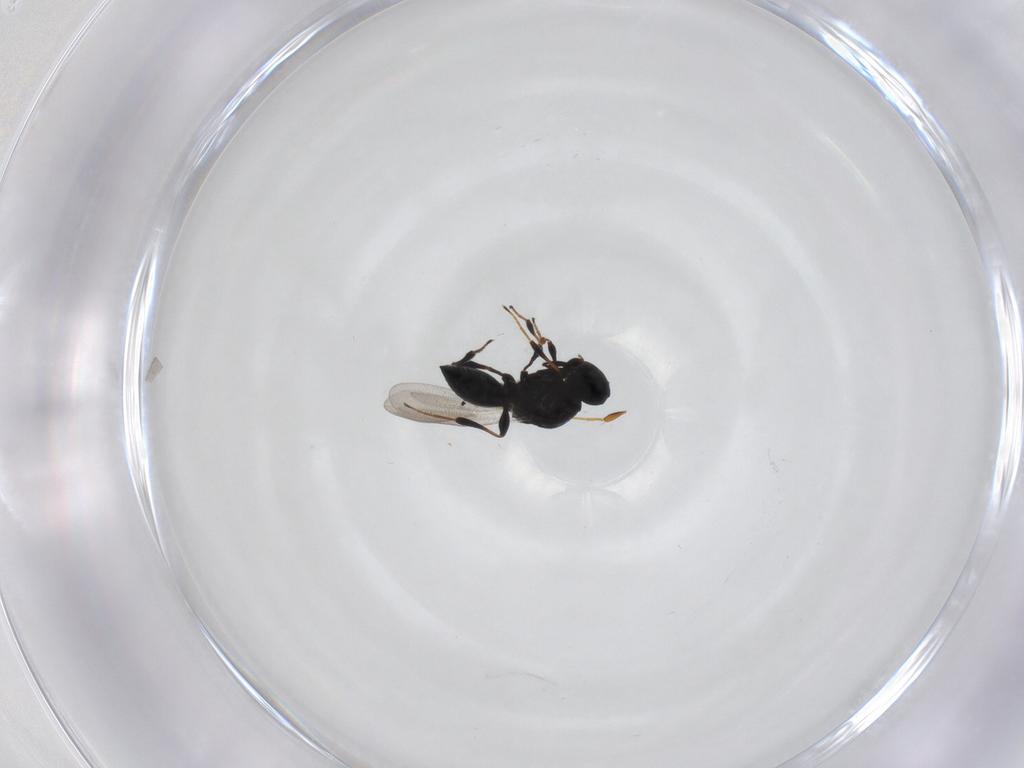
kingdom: Animalia
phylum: Arthropoda
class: Insecta
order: Hymenoptera
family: Platygastridae
